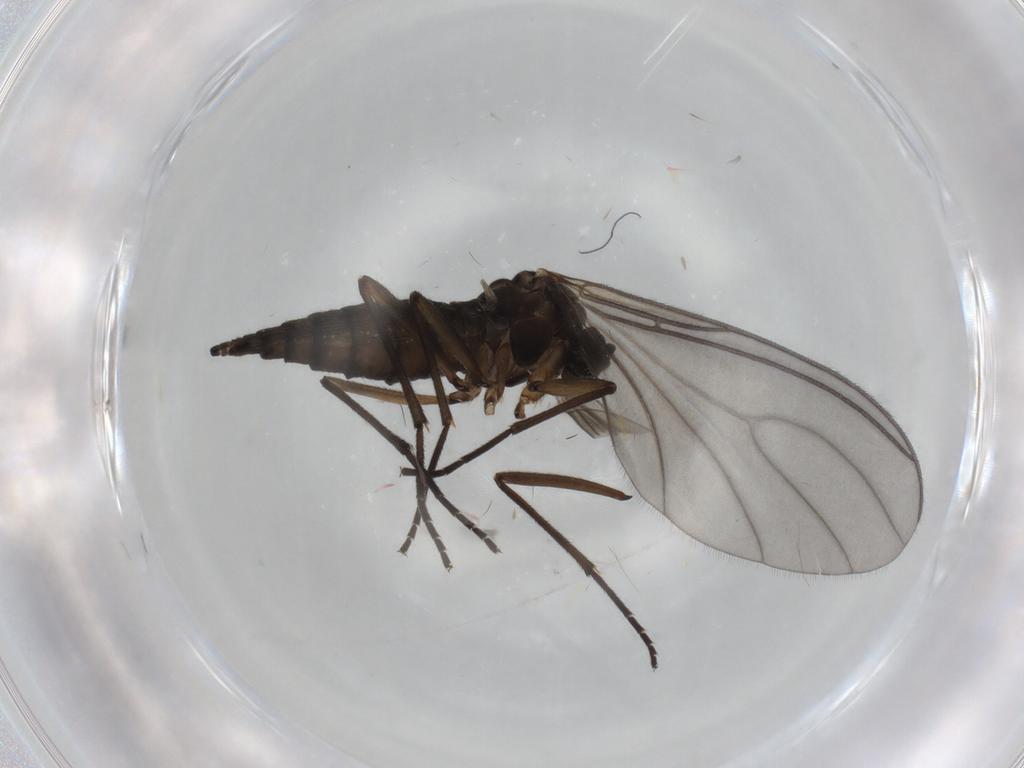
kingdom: Animalia
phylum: Arthropoda
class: Insecta
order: Diptera
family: Sciaridae
